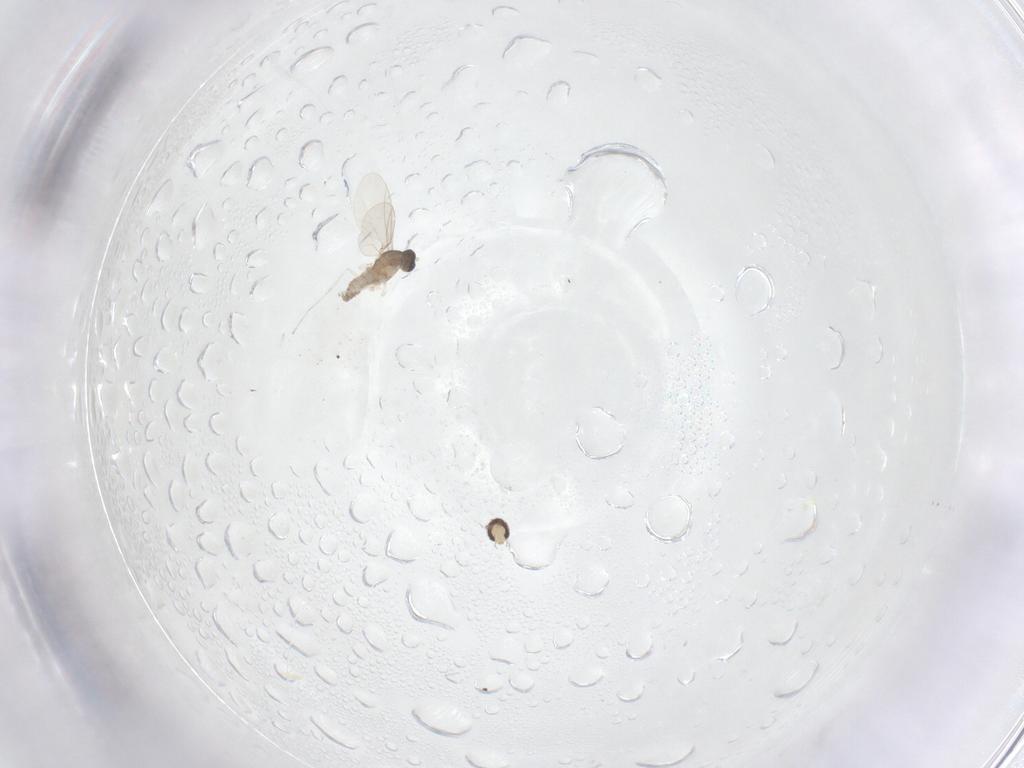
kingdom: Animalia
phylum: Arthropoda
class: Insecta
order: Diptera
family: Cecidomyiidae
